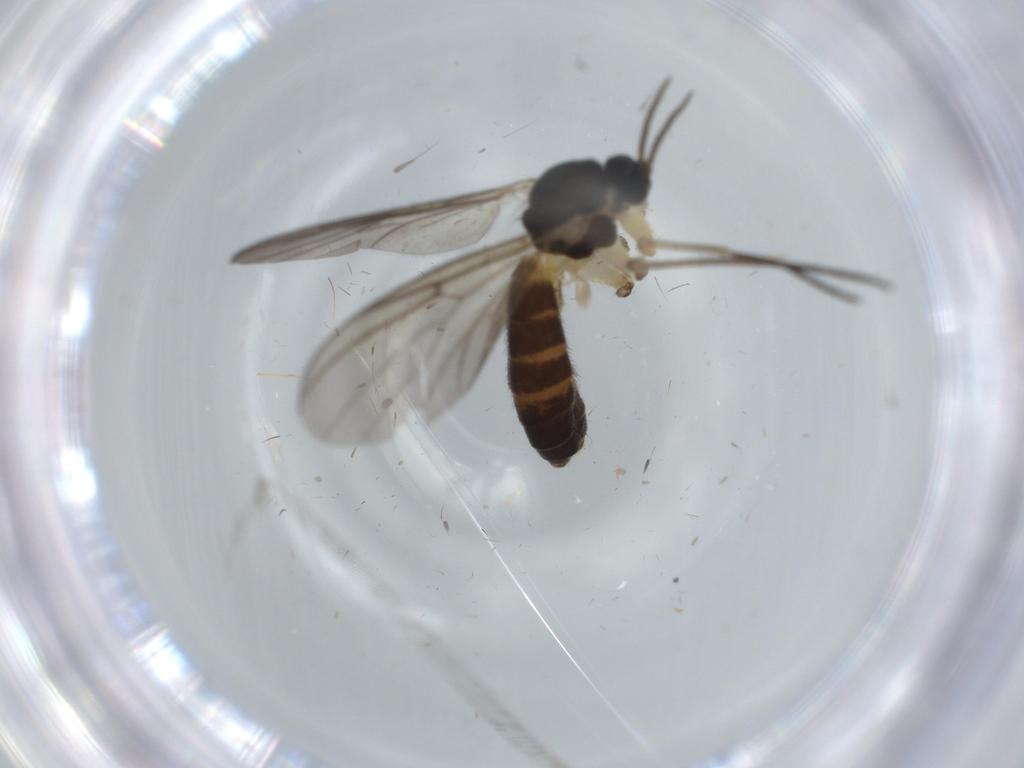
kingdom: Animalia
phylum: Arthropoda
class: Insecta
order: Diptera
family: Mycetophilidae
